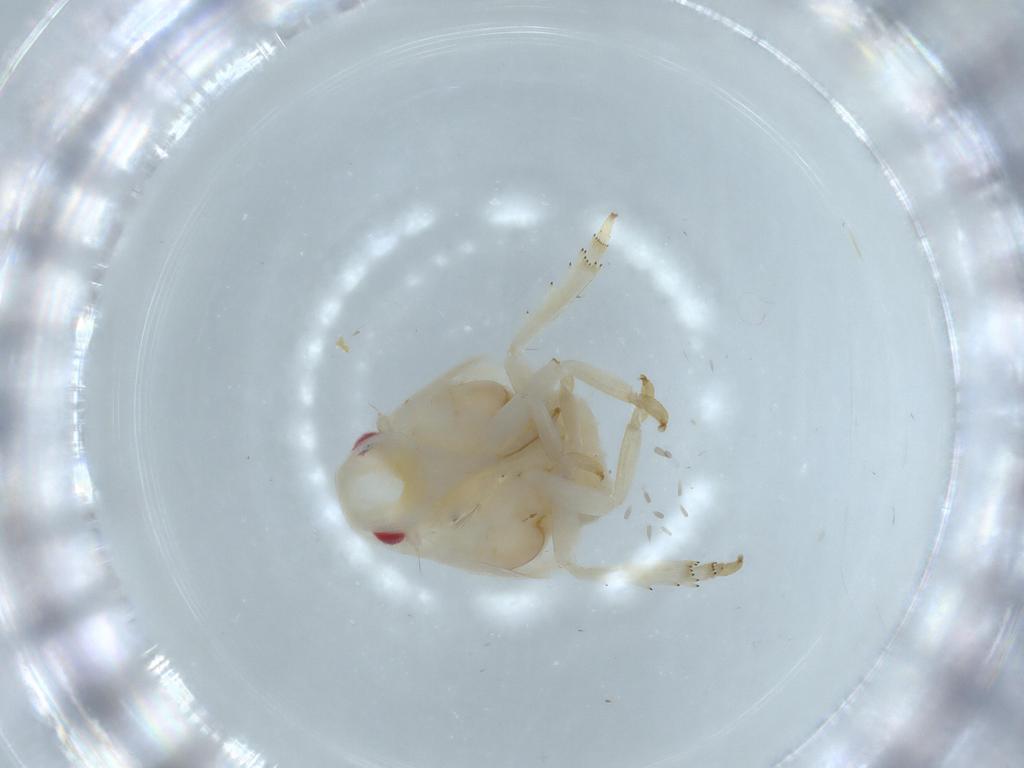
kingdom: Animalia
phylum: Arthropoda
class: Insecta
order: Hemiptera
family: Flatidae
